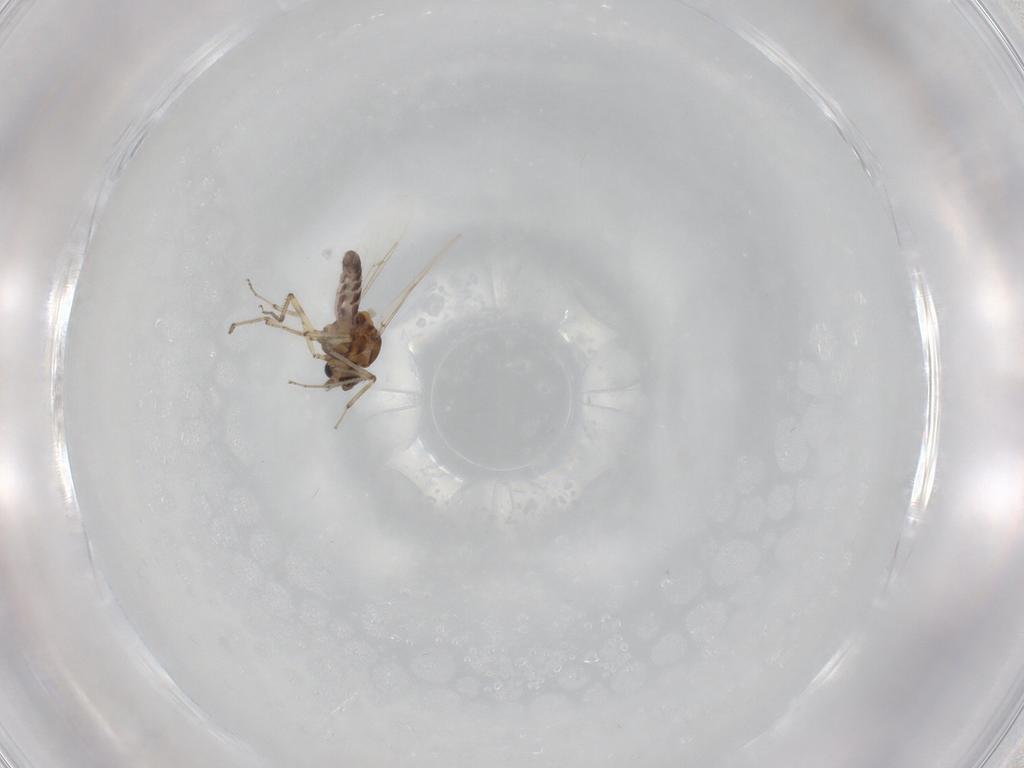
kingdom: Animalia
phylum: Arthropoda
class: Insecta
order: Diptera
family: Ceratopogonidae
